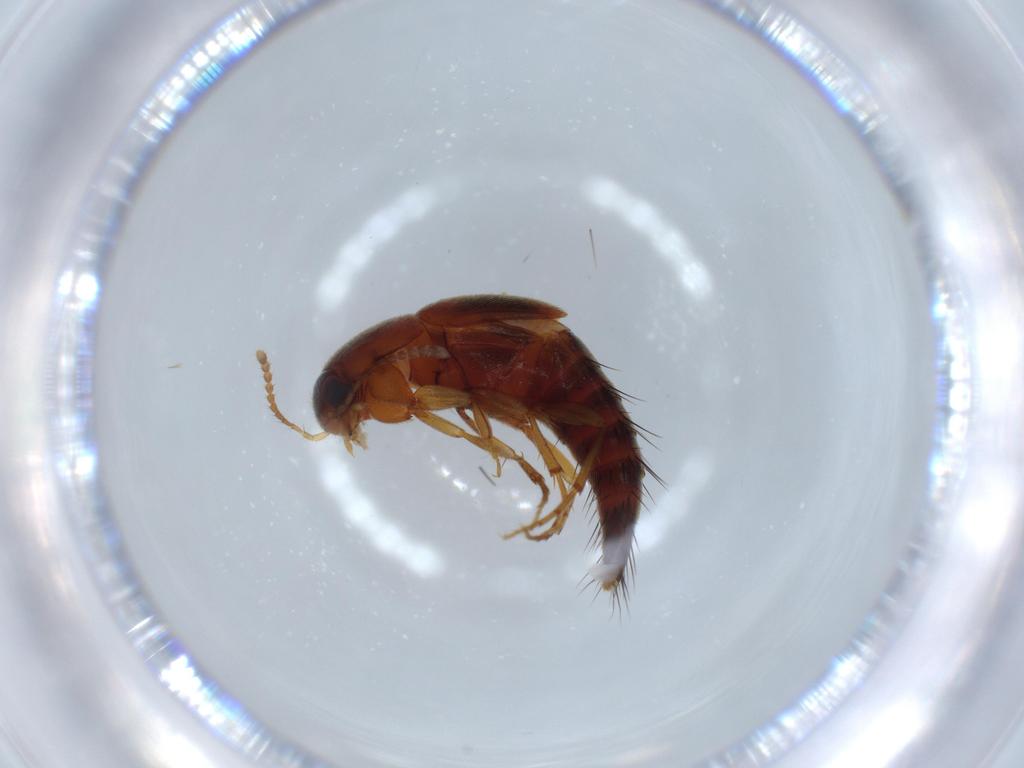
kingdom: Animalia
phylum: Arthropoda
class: Insecta
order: Coleoptera
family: Staphylinidae
